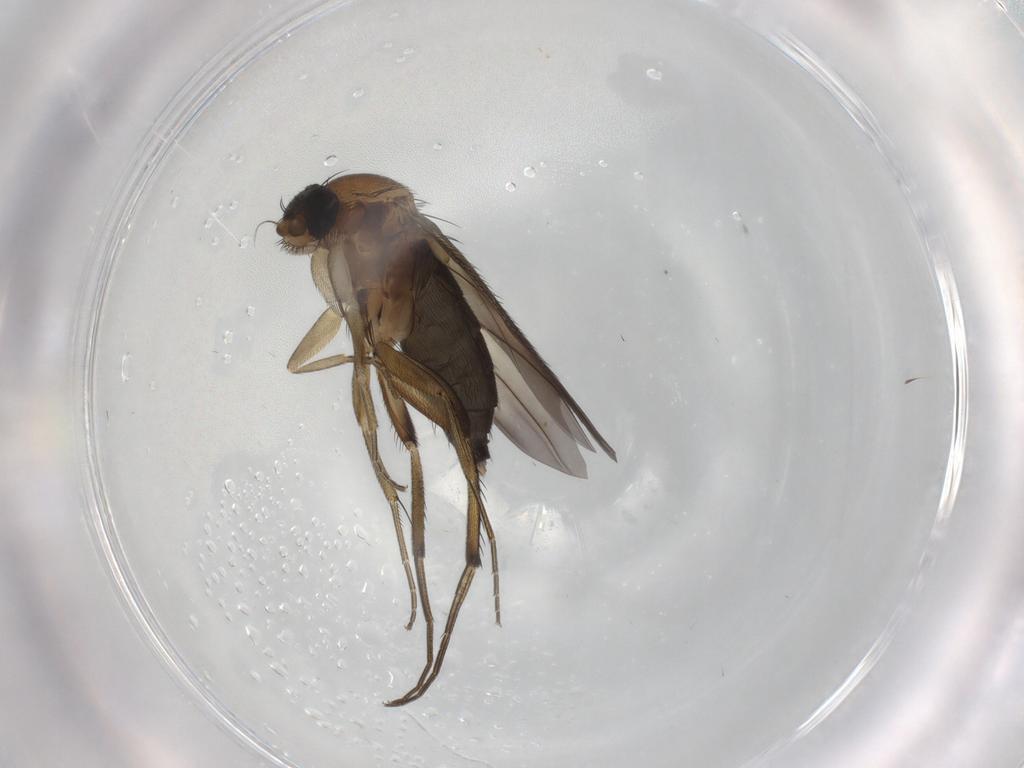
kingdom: Animalia
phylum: Arthropoda
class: Insecta
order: Diptera
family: Phoridae
